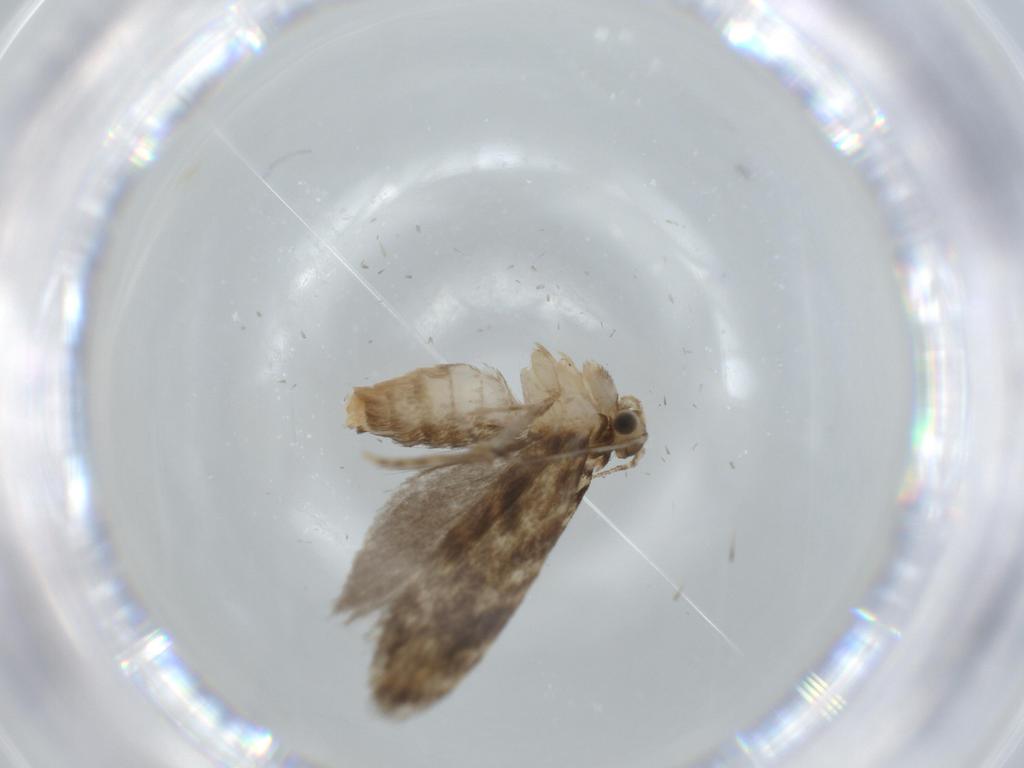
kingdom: Animalia
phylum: Arthropoda
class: Insecta
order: Lepidoptera
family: Tineidae
